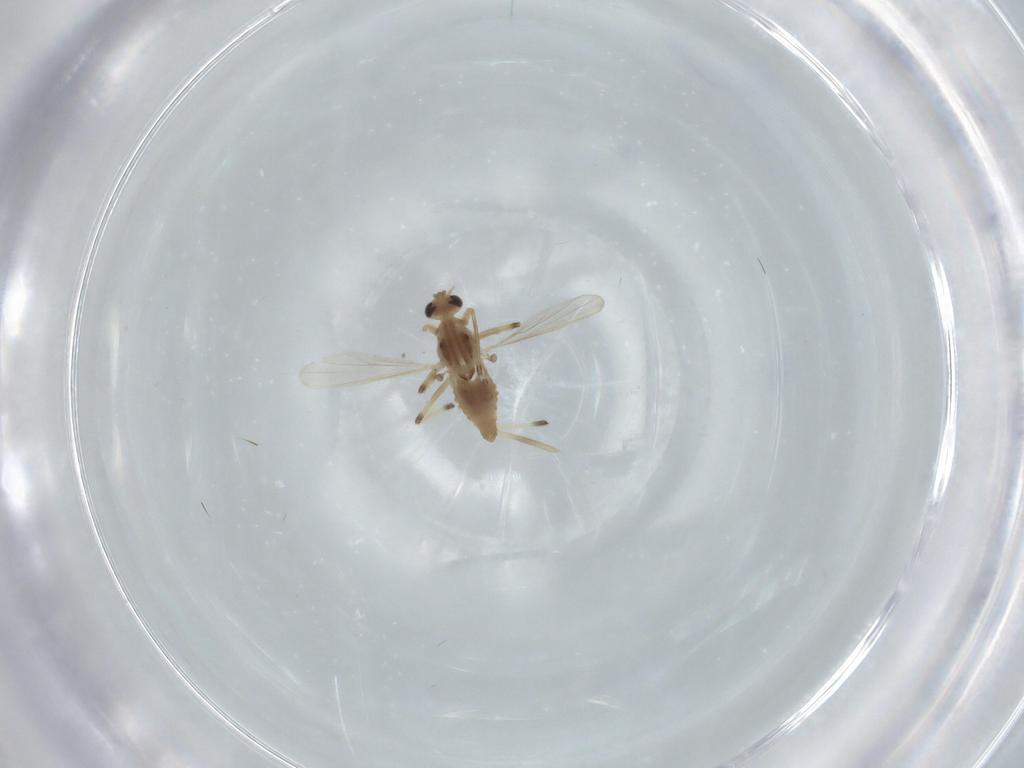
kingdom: Animalia
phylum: Arthropoda
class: Insecta
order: Diptera
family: Chironomidae
